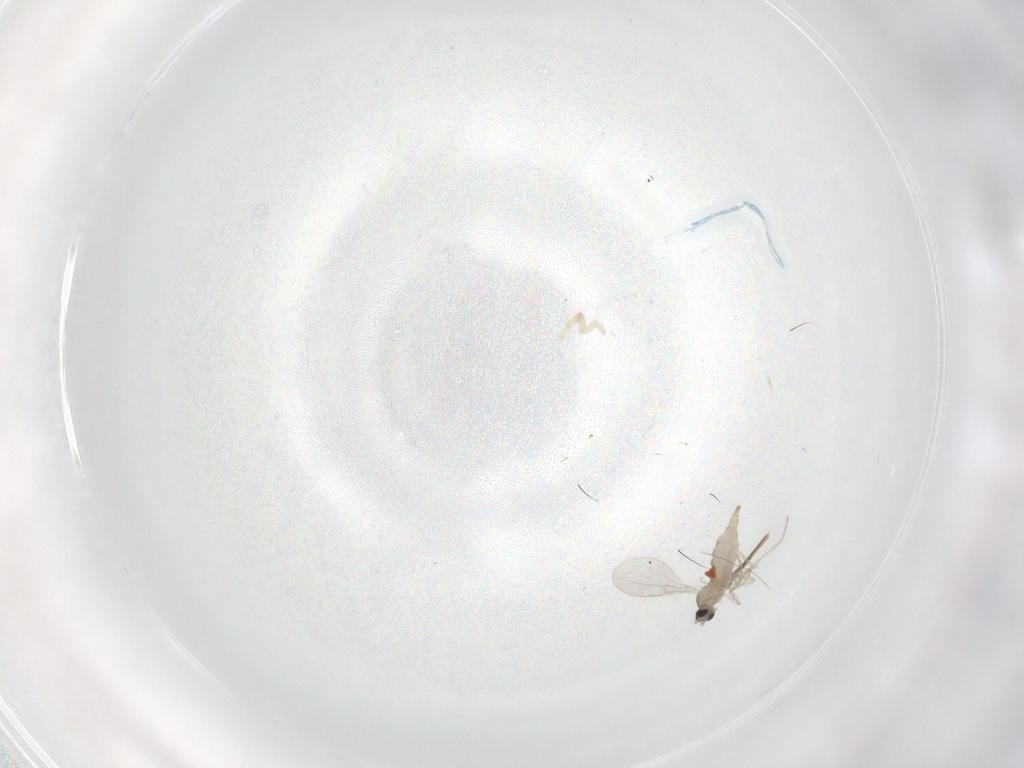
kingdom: Animalia
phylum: Arthropoda
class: Insecta
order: Diptera
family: Cecidomyiidae
